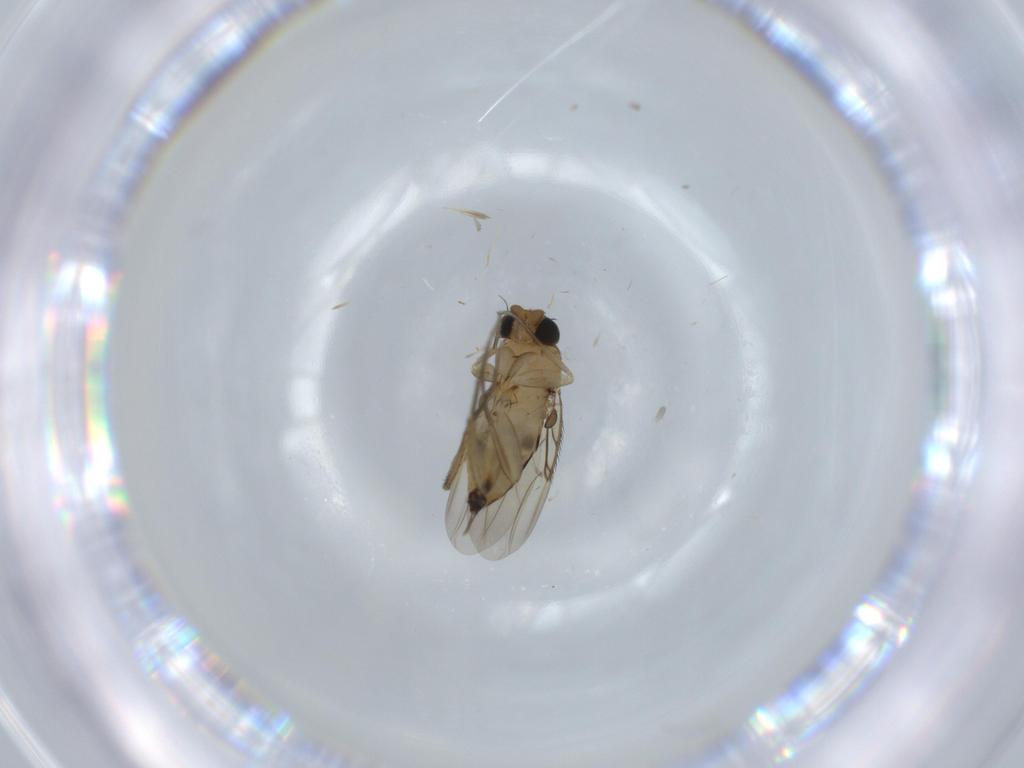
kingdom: Animalia
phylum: Arthropoda
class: Insecta
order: Diptera
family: Phoridae
